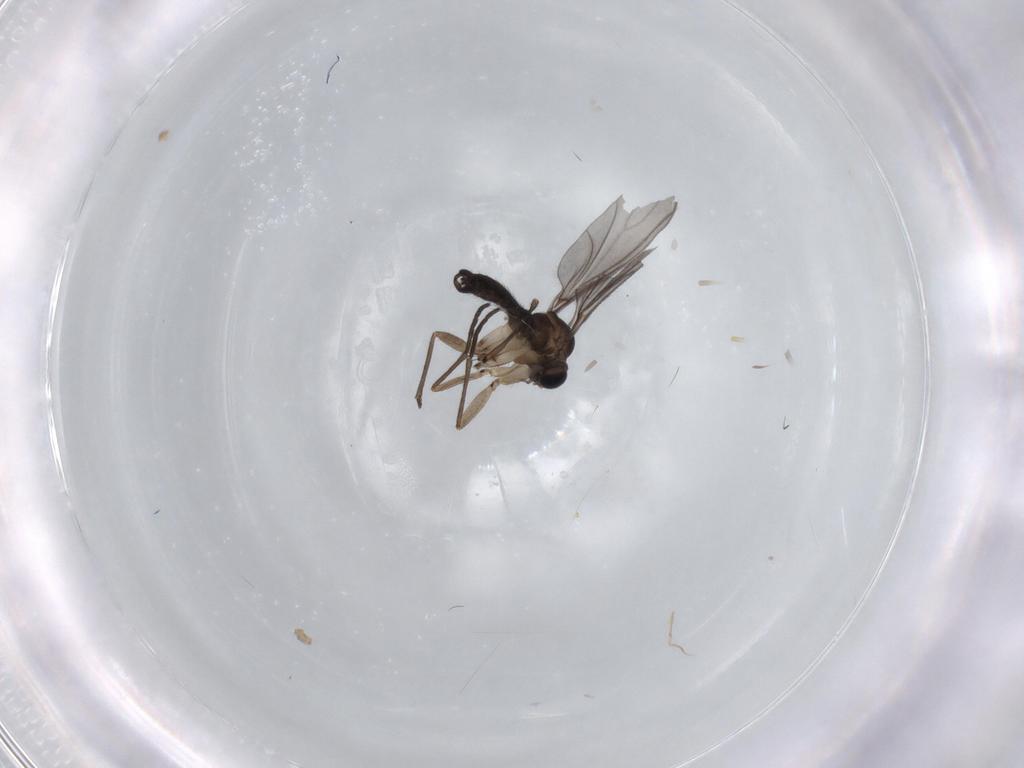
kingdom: Animalia
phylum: Arthropoda
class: Insecta
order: Diptera
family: Sciaridae
